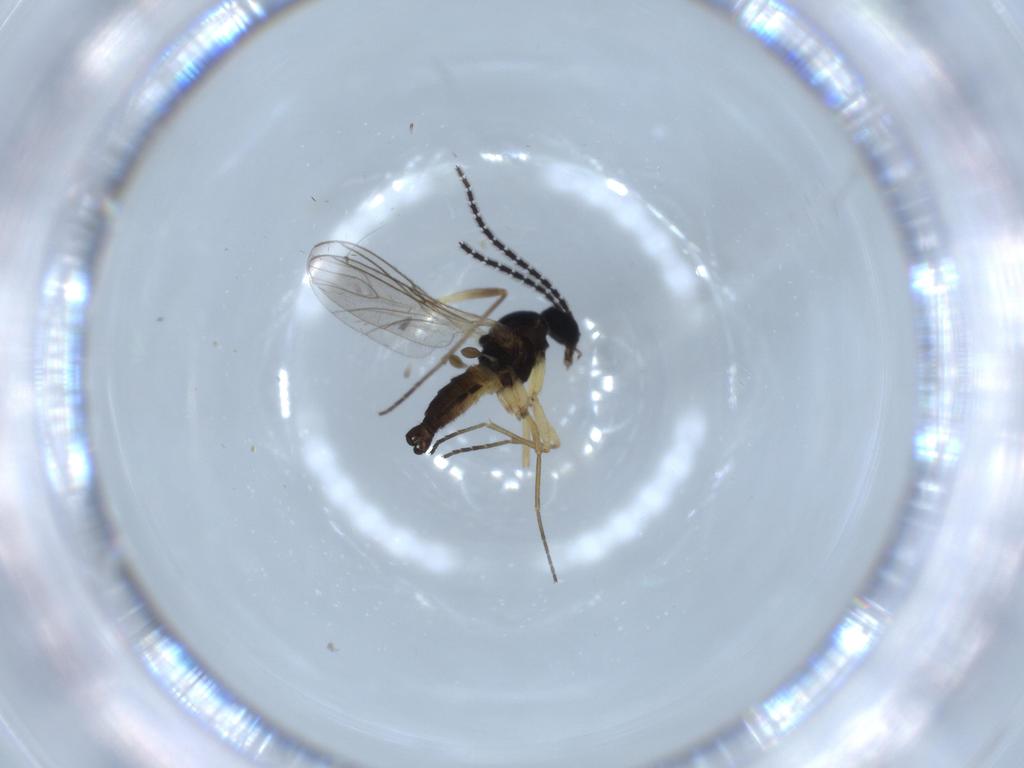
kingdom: Animalia
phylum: Arthropoda
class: Insecta
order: Diptera
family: Sciaridae
